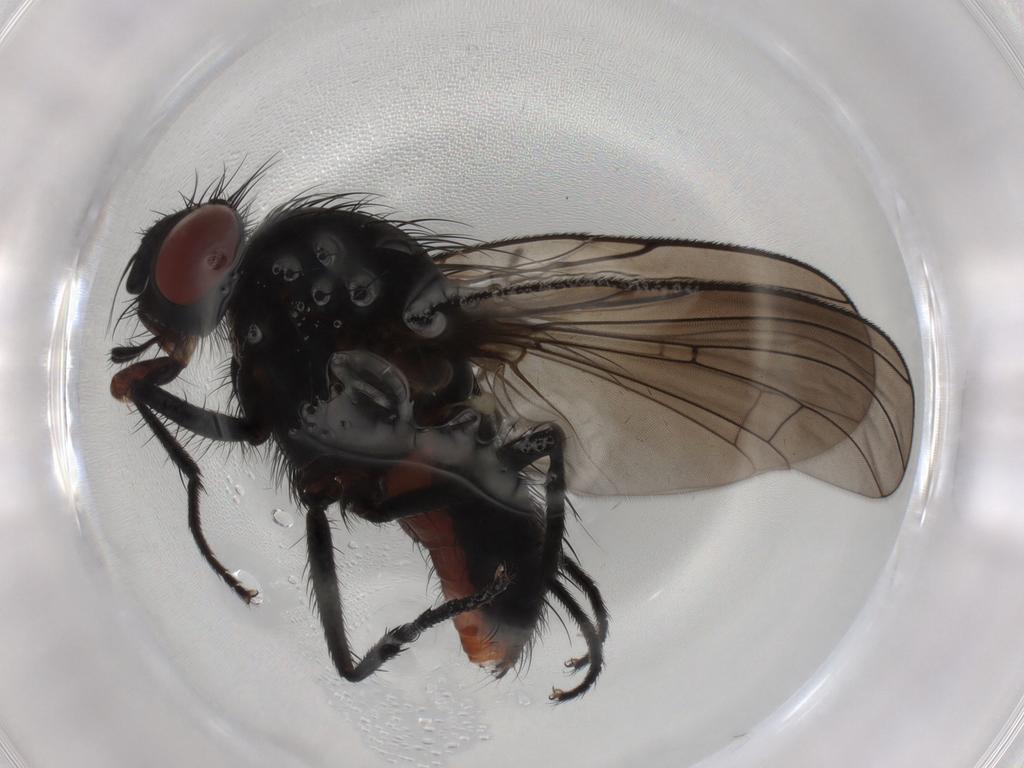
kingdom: Animalia
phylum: Arthropoda
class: Insecta
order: Diptera
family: Anthomyiidae
